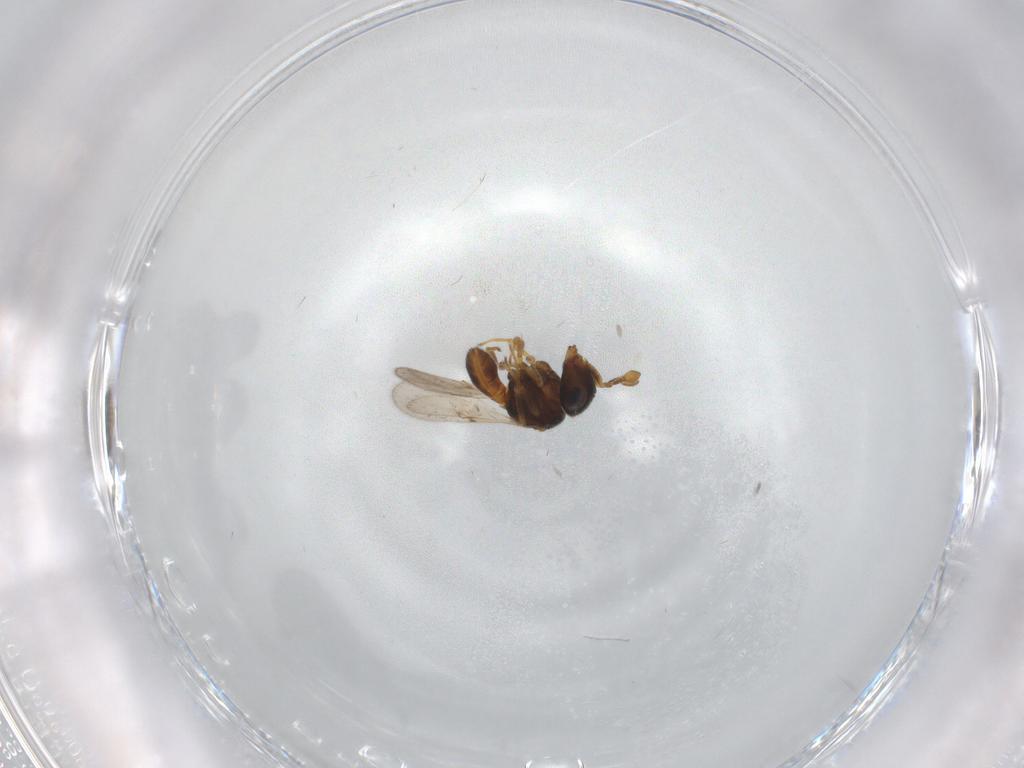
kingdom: Animalia
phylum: Arthropoda
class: Insecta
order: Hymenoptera
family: Scelionidae
